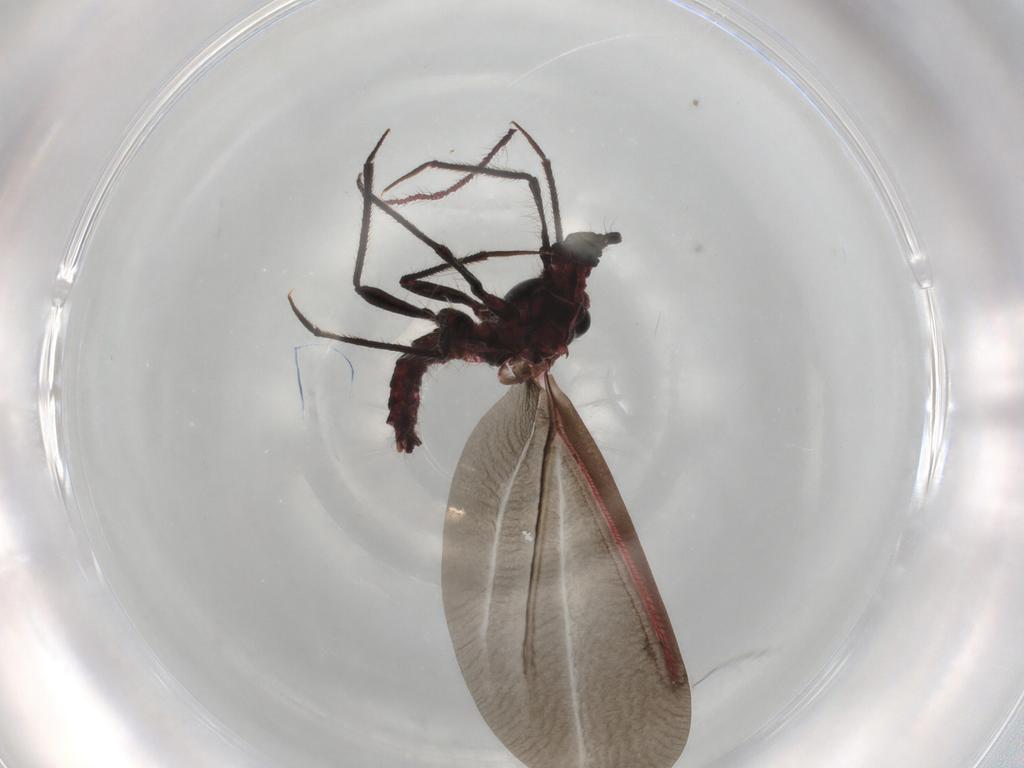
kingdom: Animalia
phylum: Arthropoda
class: Insecta
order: Hemiptera
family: Monophlebidae
